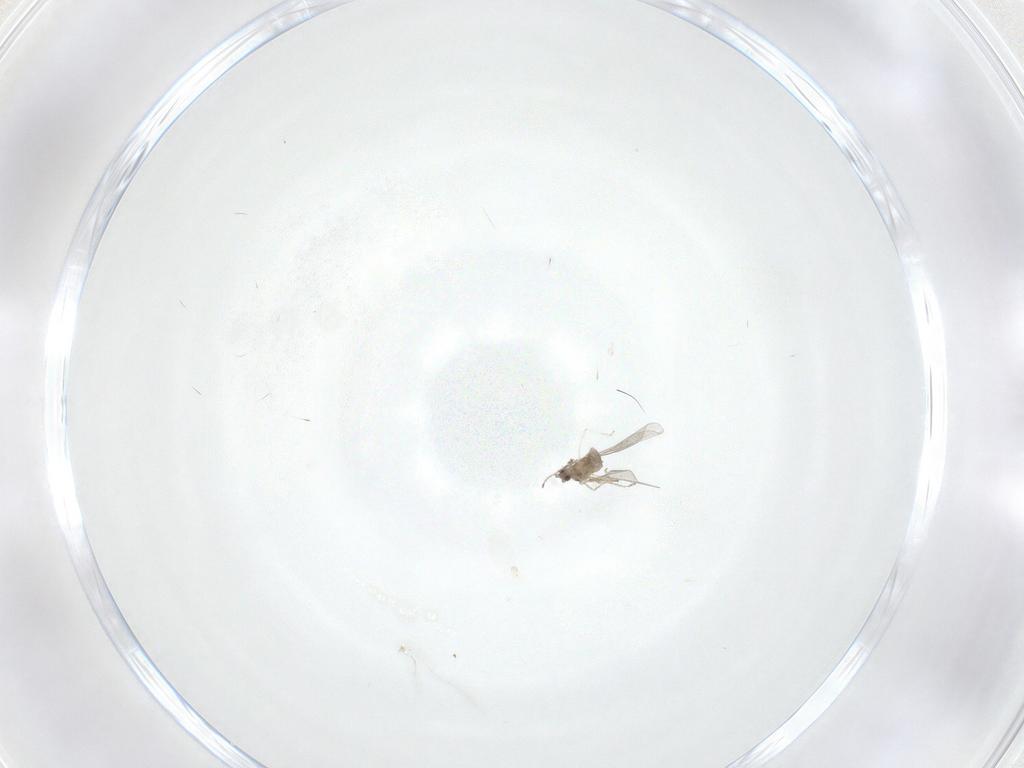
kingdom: Animalia
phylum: Arthropoda
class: Insecta
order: Diptera
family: Cecidomyiidae
